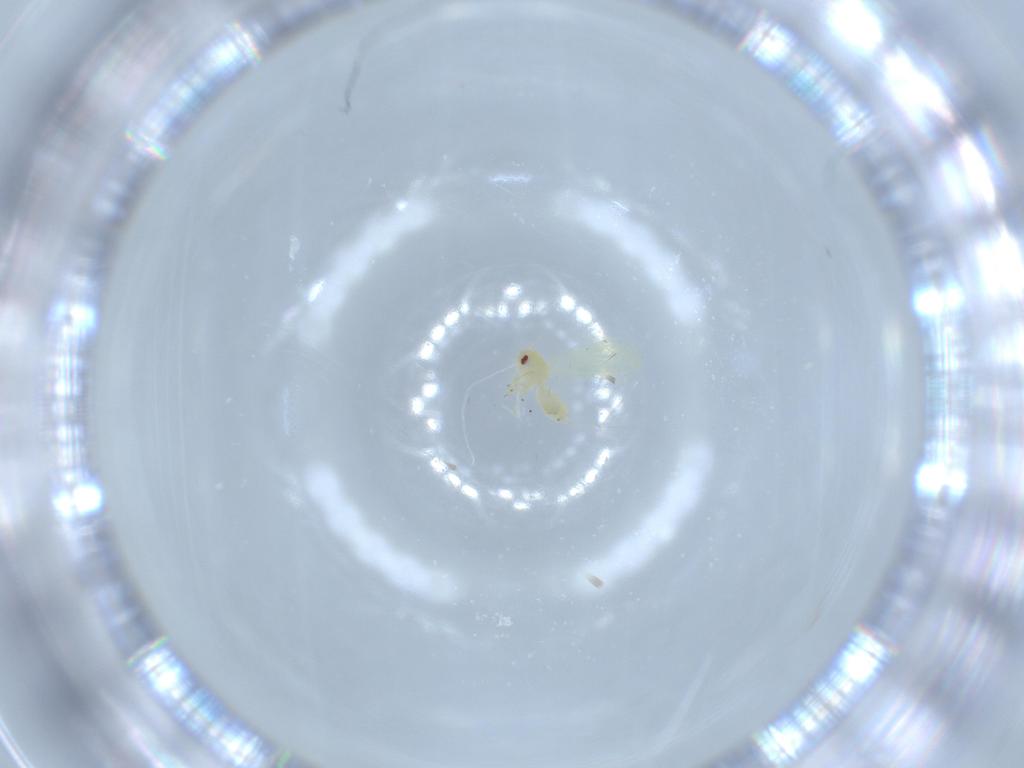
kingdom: Animalia
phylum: Arthropoda
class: Insecta
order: Hemiptera
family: Aleyrodidae
